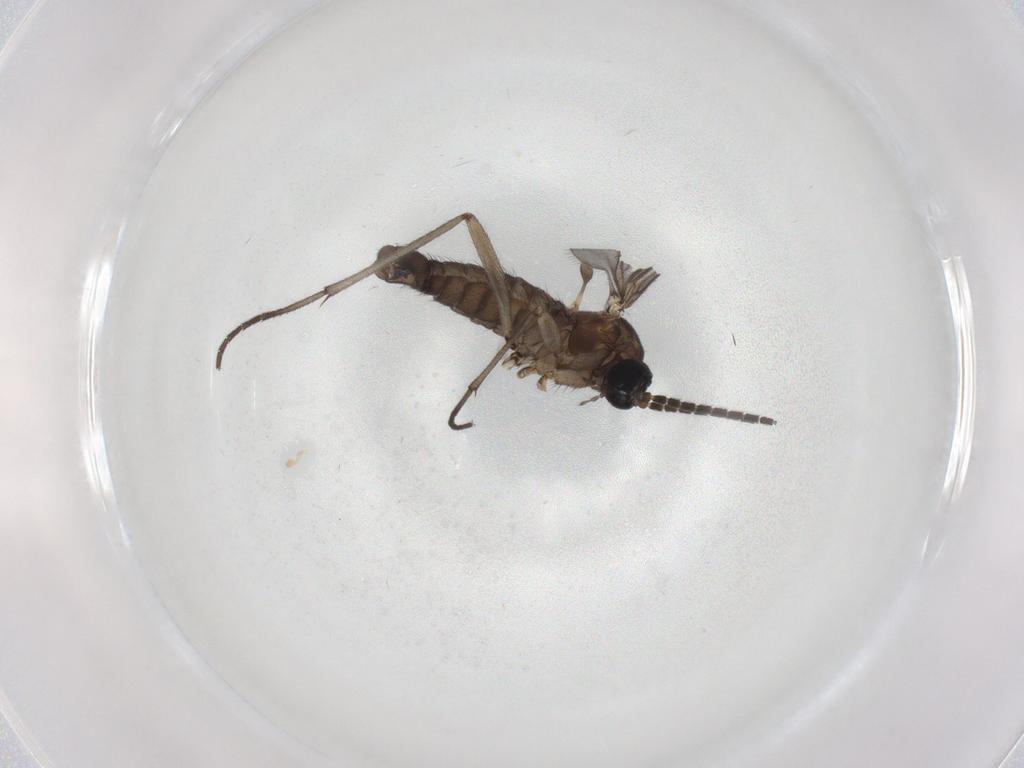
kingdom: Animalia
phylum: Arthropoda
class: Insecta
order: Diptera
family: Sciaridae
